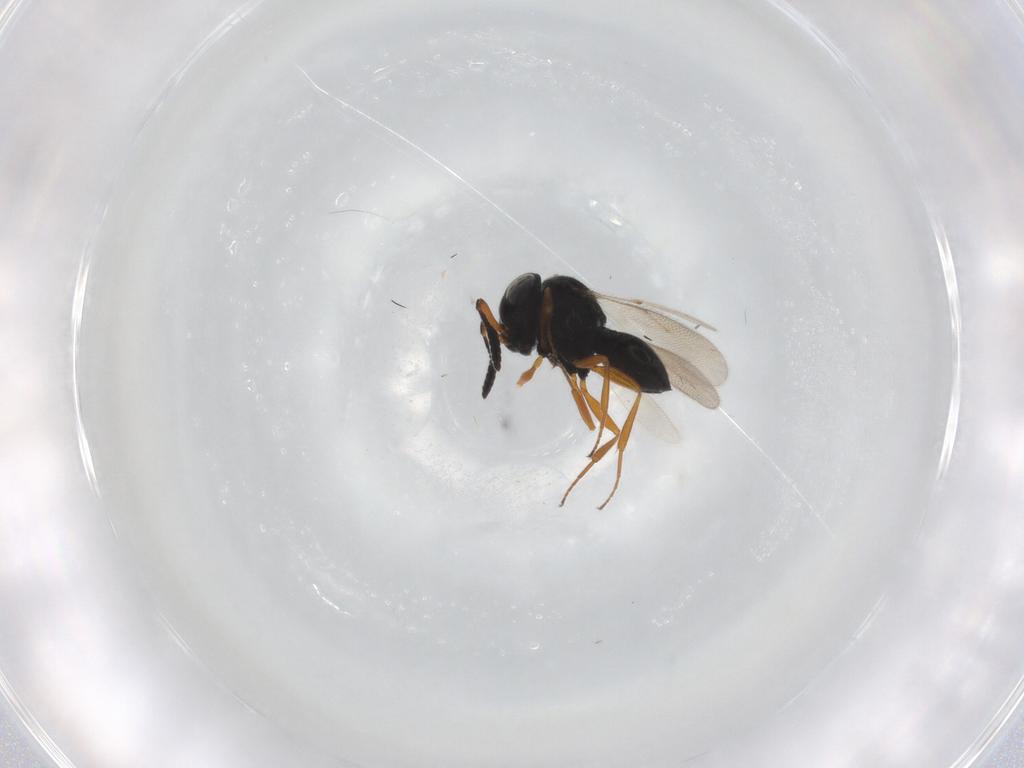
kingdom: Animalia
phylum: Arthropoda
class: Insecta
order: Hymenoptera
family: Scelionidae
